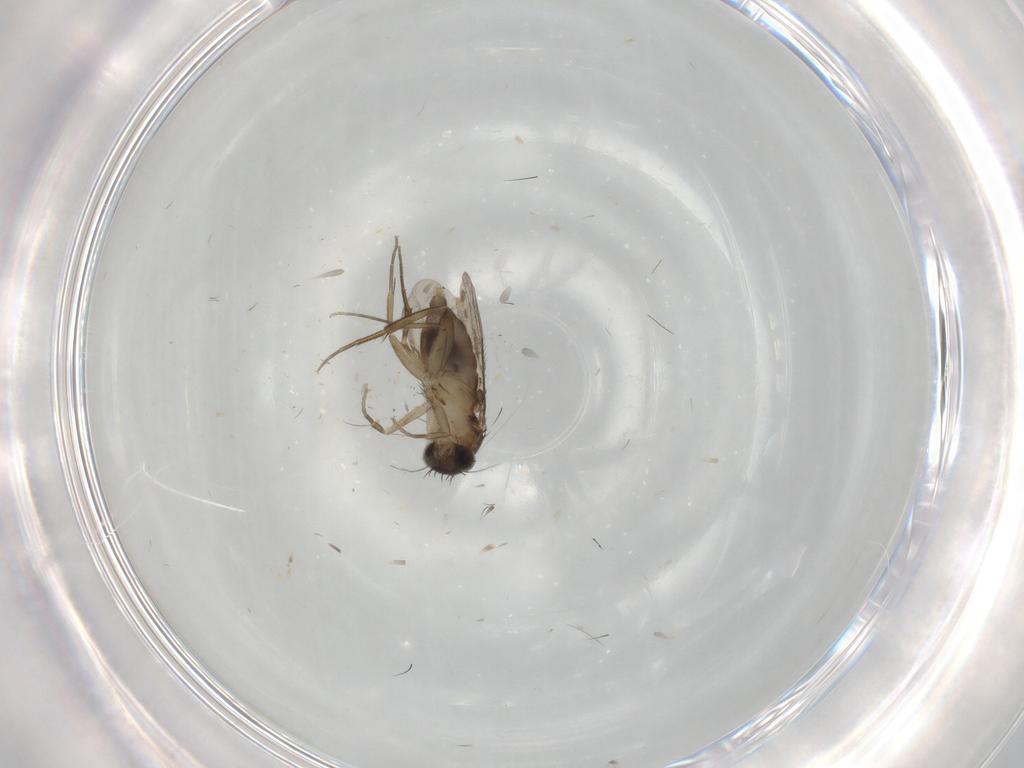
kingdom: Animalia
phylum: Arthropoda
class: Insecta
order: Diptera
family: Phoridae
